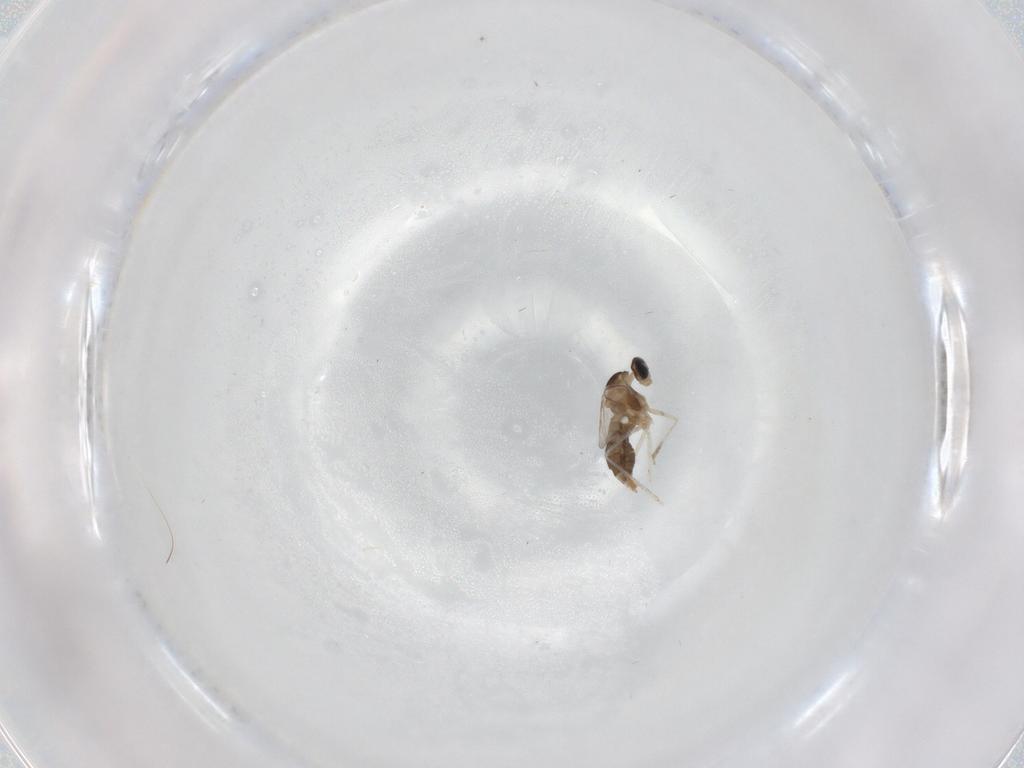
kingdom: Animalia
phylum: Arthropoda
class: Insecta
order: Diptera
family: Cecidomyiidae
